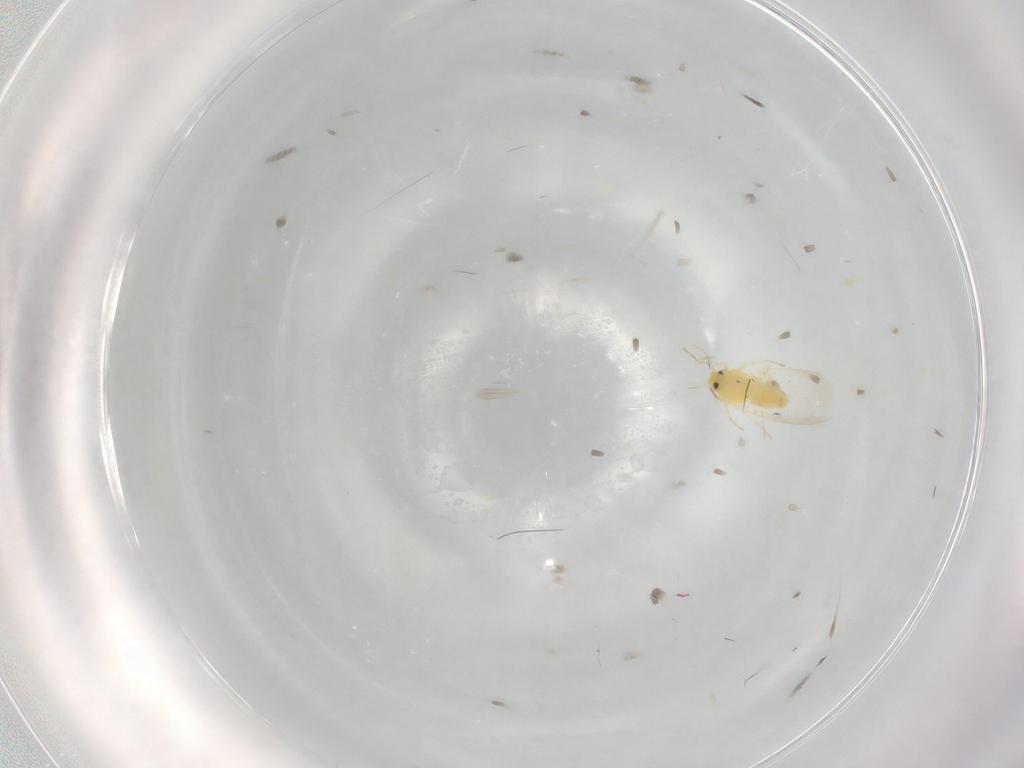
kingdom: Animalia
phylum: Arthropoda
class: Insecta
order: Hemiptera
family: Aleyrodidae
